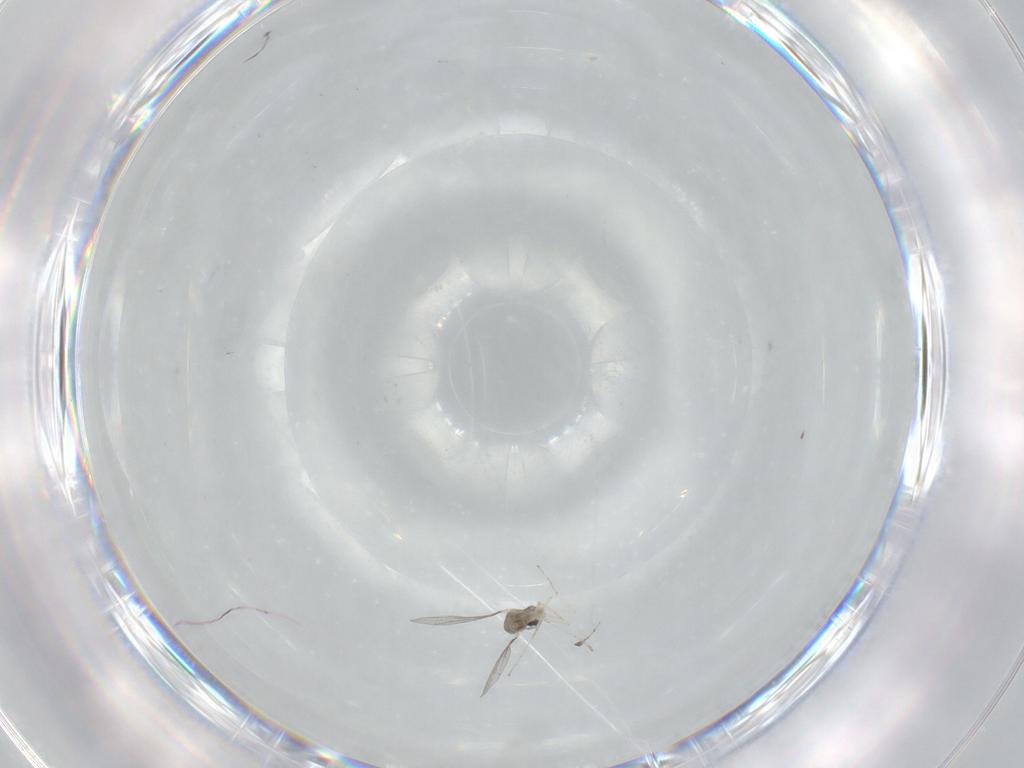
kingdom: Animalia
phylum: Arthropoda
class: Insecta
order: Diptera
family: Cecidomyiidae
